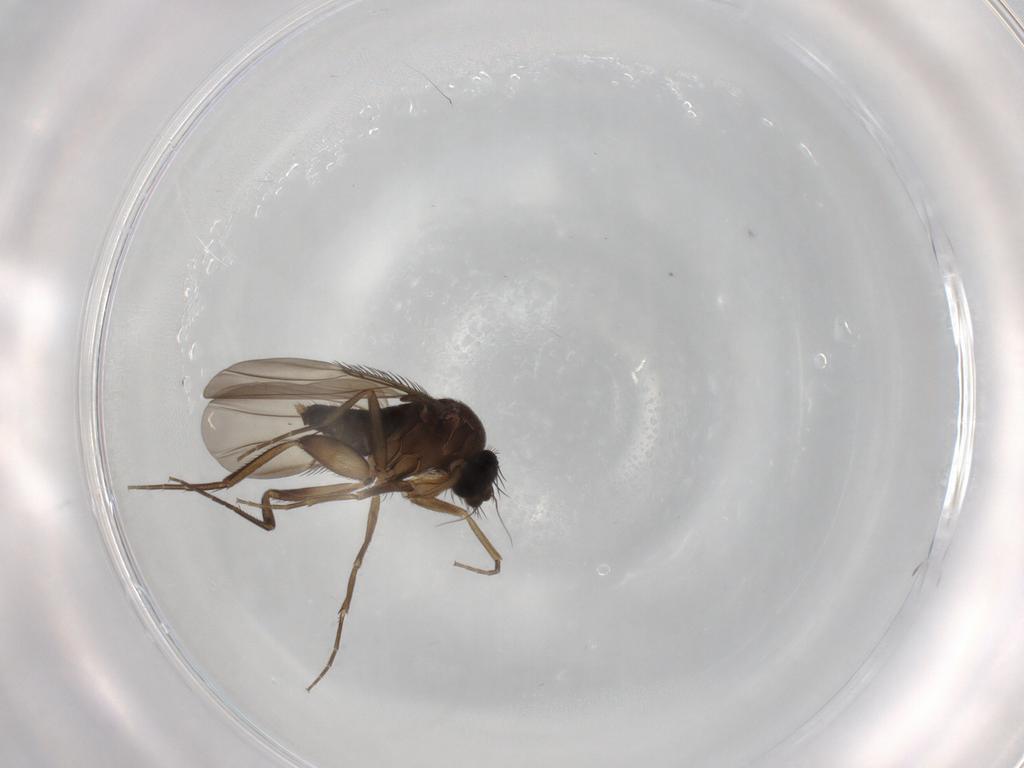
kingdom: Animalia
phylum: Arthropoda
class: Insecta
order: Diptera
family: Phoridae
